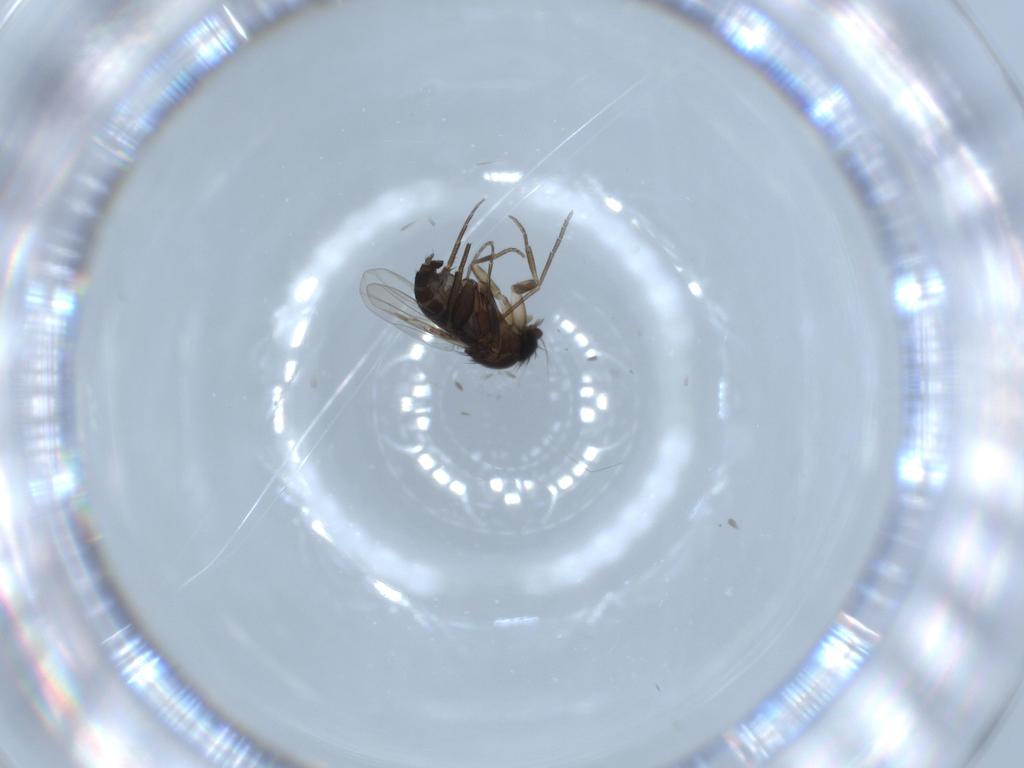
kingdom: Animalia
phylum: Arthropoda
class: Insecta
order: Diptera
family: Phoridae
